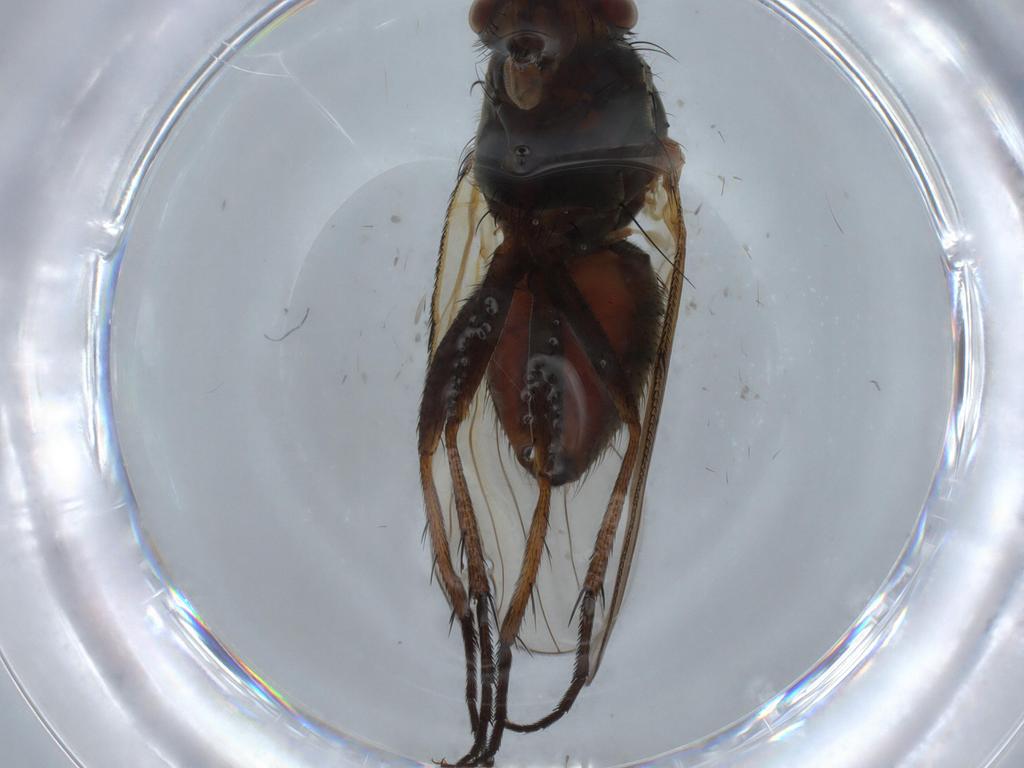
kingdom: Animalia
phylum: Arthropoda
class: Insecta
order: Diptera
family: Anthomyiidae
